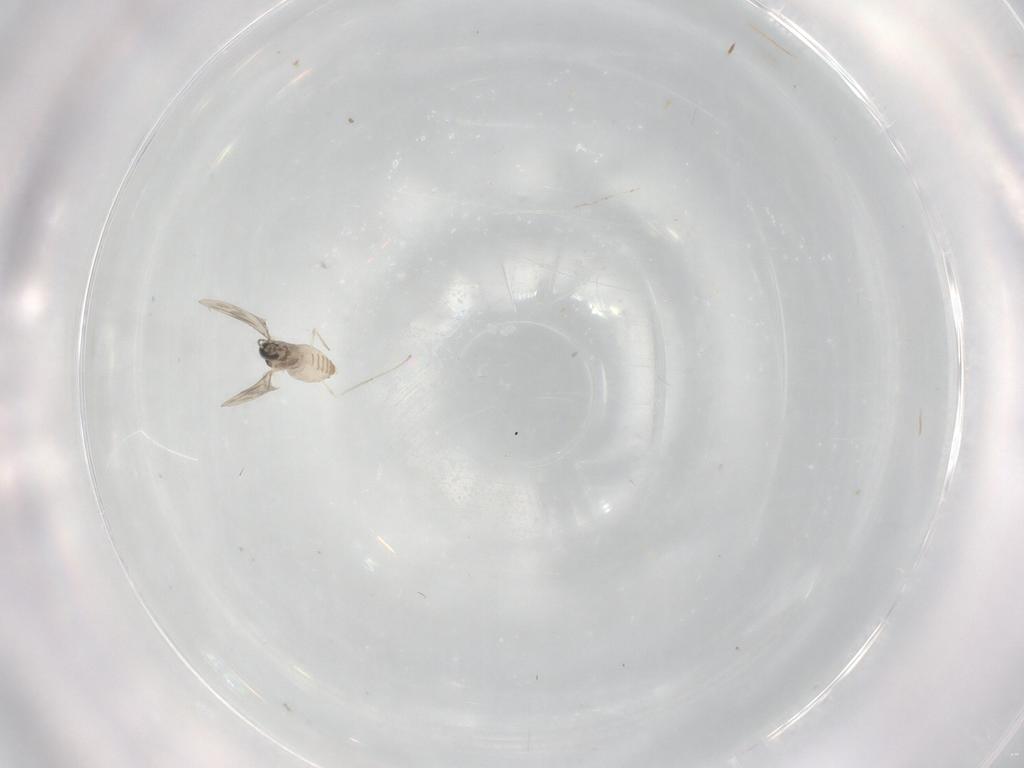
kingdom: Animalia
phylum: Arthropoda
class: Insecta
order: Diptera
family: Cecidomyiidae
